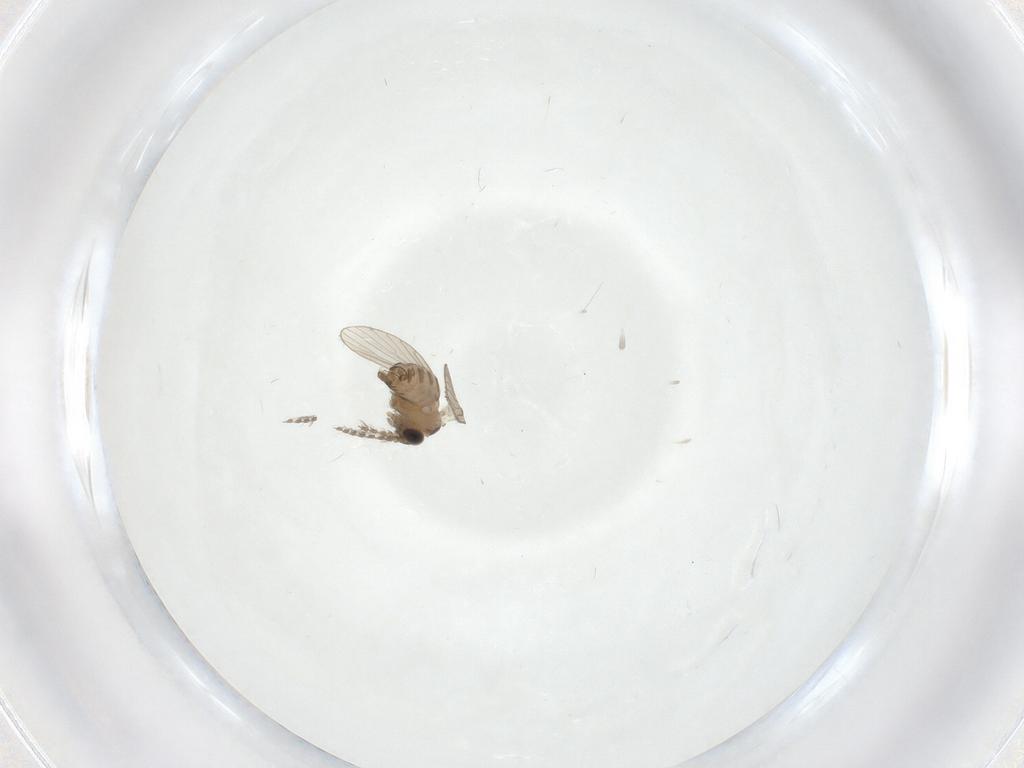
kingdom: Animalia
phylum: Arthropoda
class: Insecta
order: Diptera
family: Psychodidae
